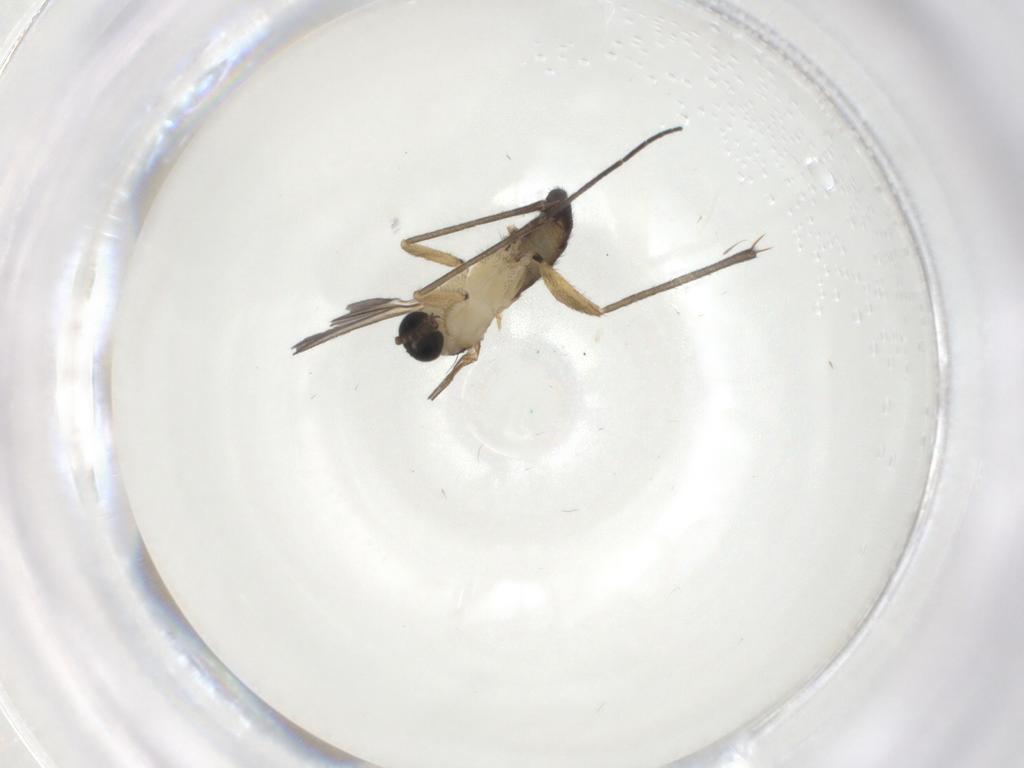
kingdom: Animalia
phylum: Arthropoda
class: Insecta
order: Diptera
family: Sciaridae
